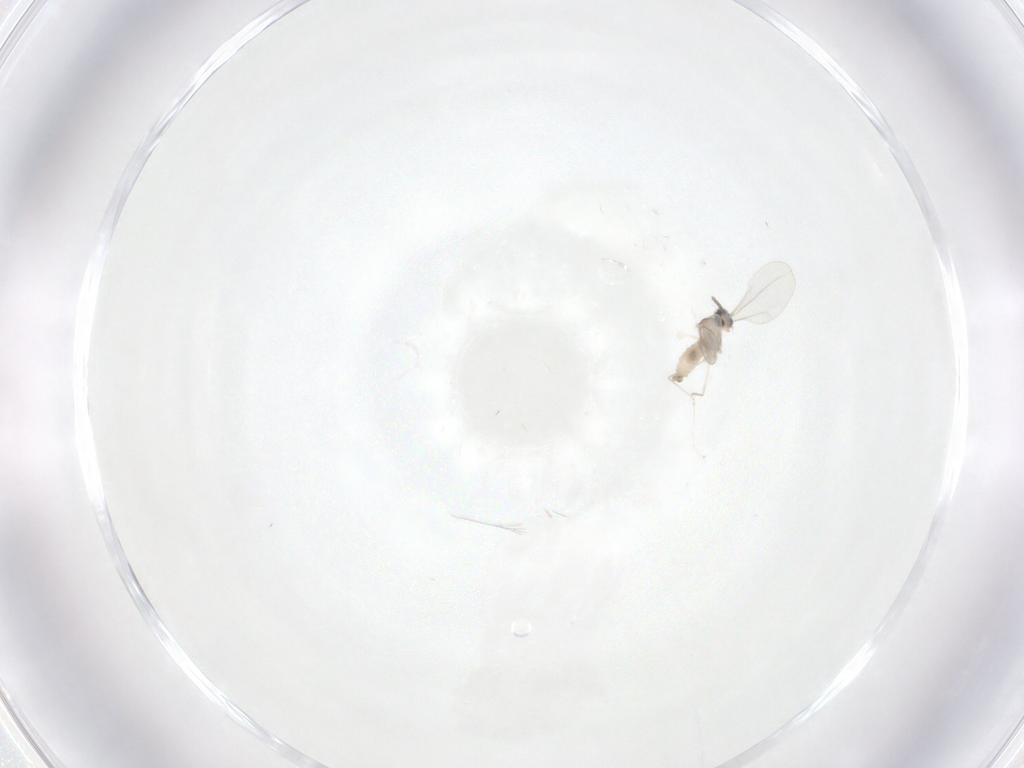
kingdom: Animalia
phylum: Arthropoda
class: Insecta
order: Diptera
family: Cecidomyiidae
